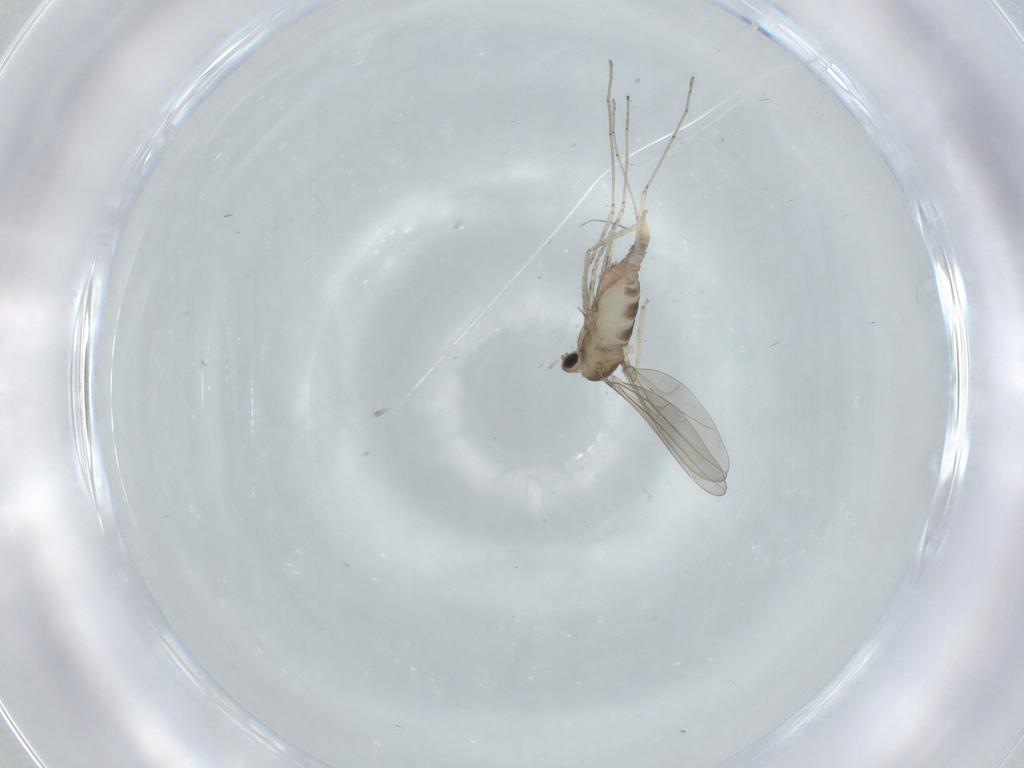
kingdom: Animalia
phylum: Arthropoda
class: Insecta
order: Diptera
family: Cecidomyiidae
